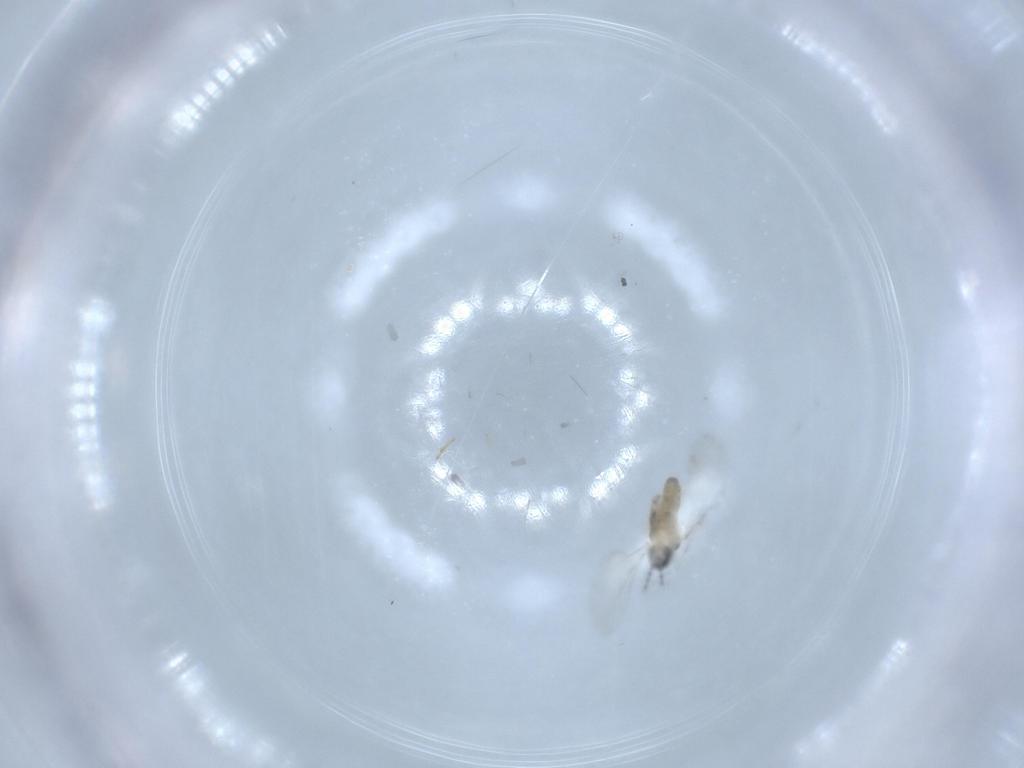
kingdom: Animalia
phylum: Arthropoda
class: Insecta
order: Diptera
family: Cecidomyiidae
